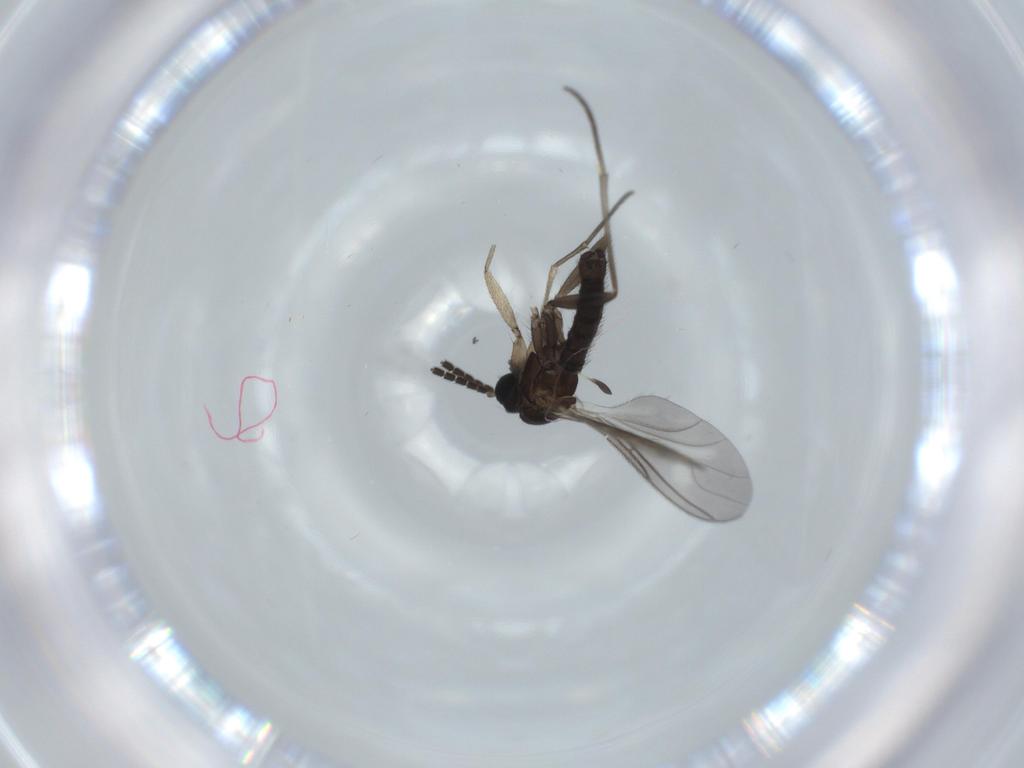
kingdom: Animalia
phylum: Arthropoda
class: Insecta
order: Diptera
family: Sciaridae
